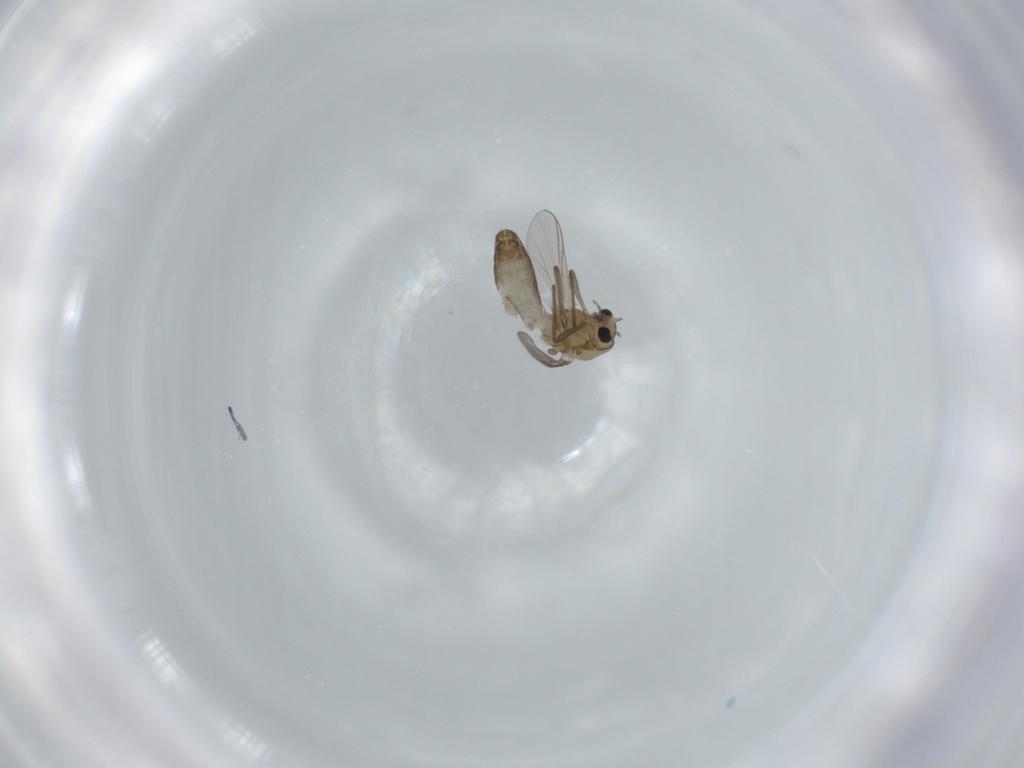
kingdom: Animalia
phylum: Arthropoda
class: Insecta
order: Diptera
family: Chironomidae
